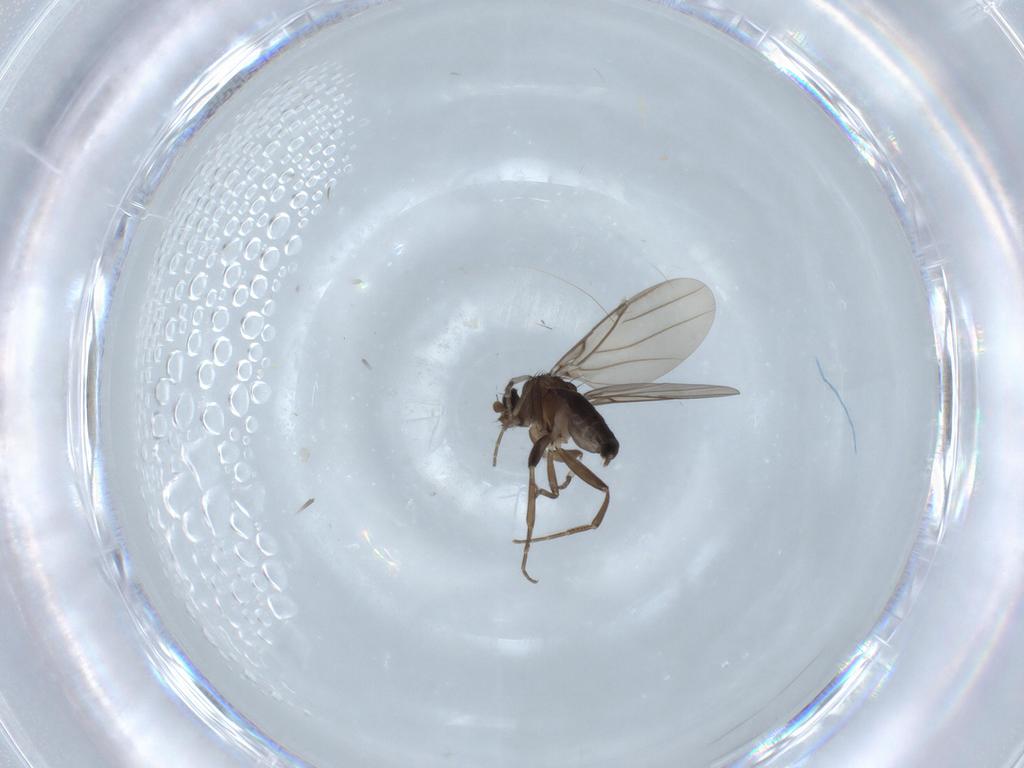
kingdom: Animalia
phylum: Arthropoda
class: Insecta
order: Diptera
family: Phoridae
